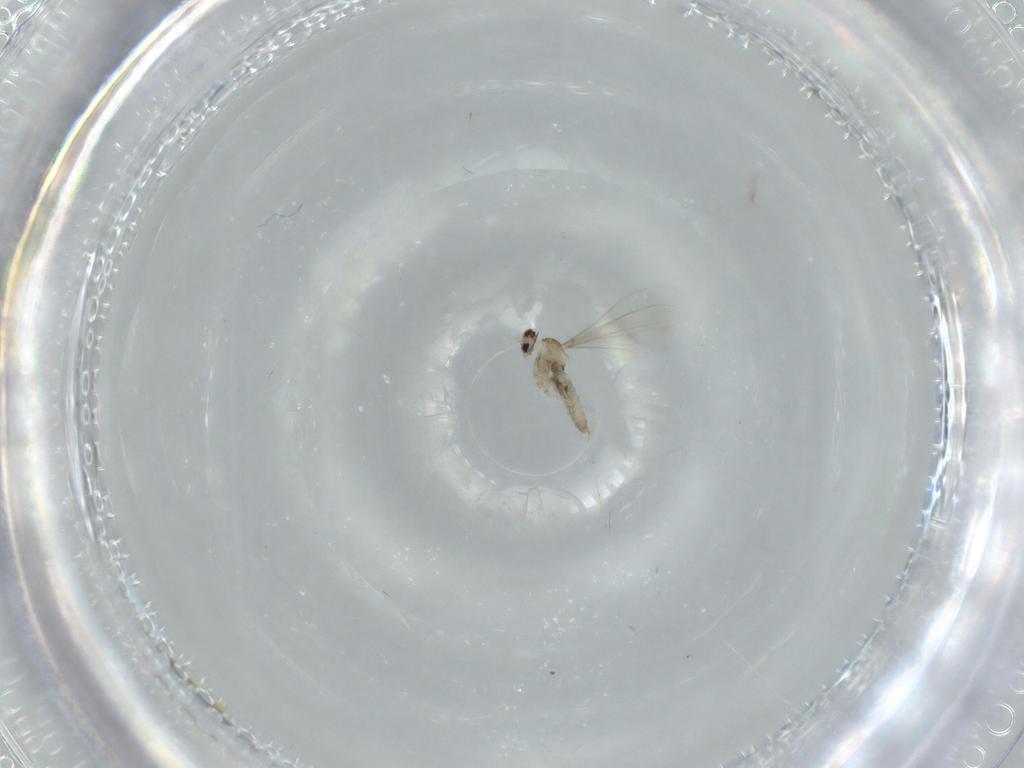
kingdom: Animalia
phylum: Arthropoda
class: Insecta
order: Diptera
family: Cecidomyiidae
